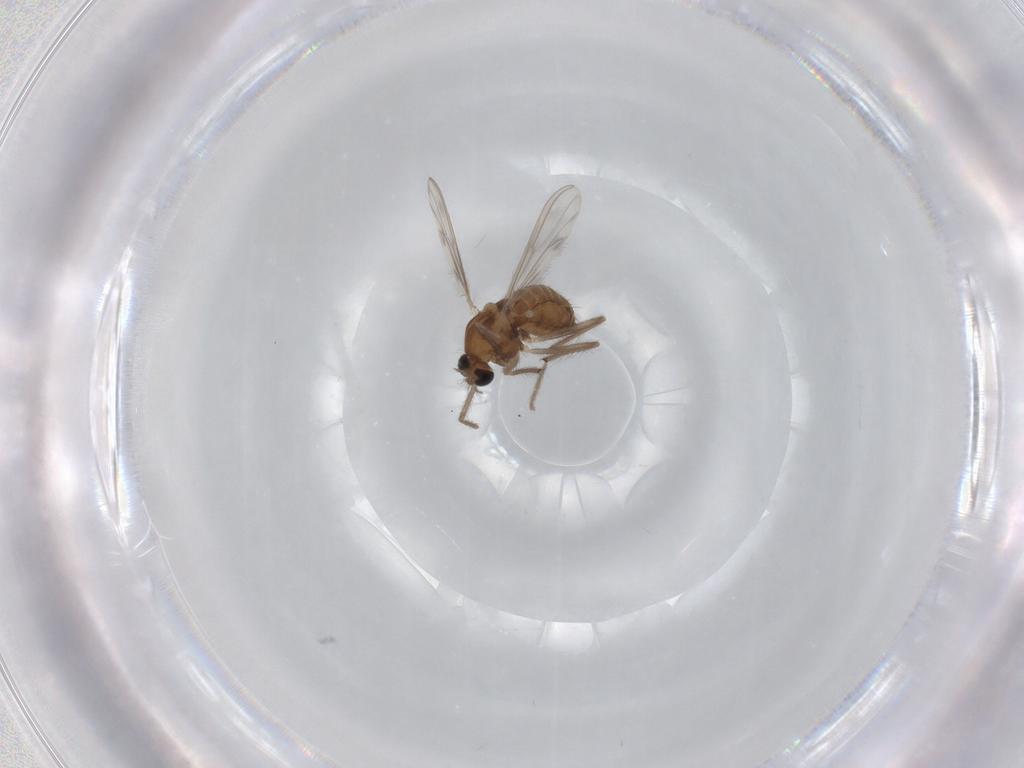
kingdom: Animalia
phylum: Arthropoda
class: Insecta
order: Diptera
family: Chironomidae
